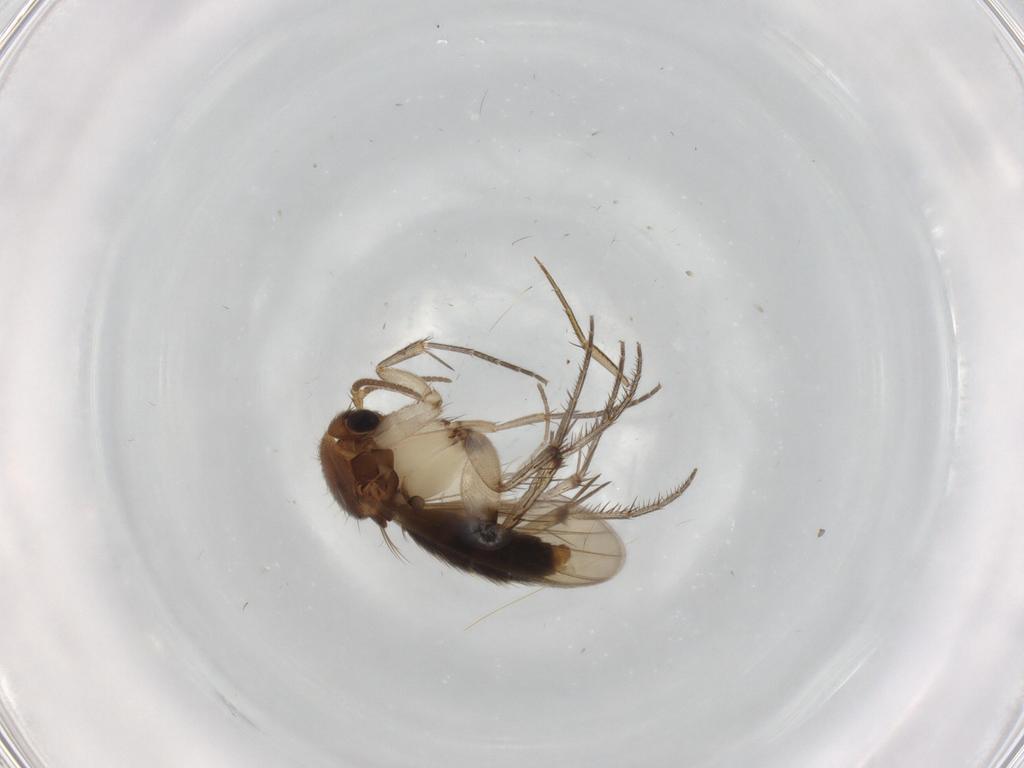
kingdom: Animalia
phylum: Arthropoda
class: Insecta
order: Diptera
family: Mycetophilidae
